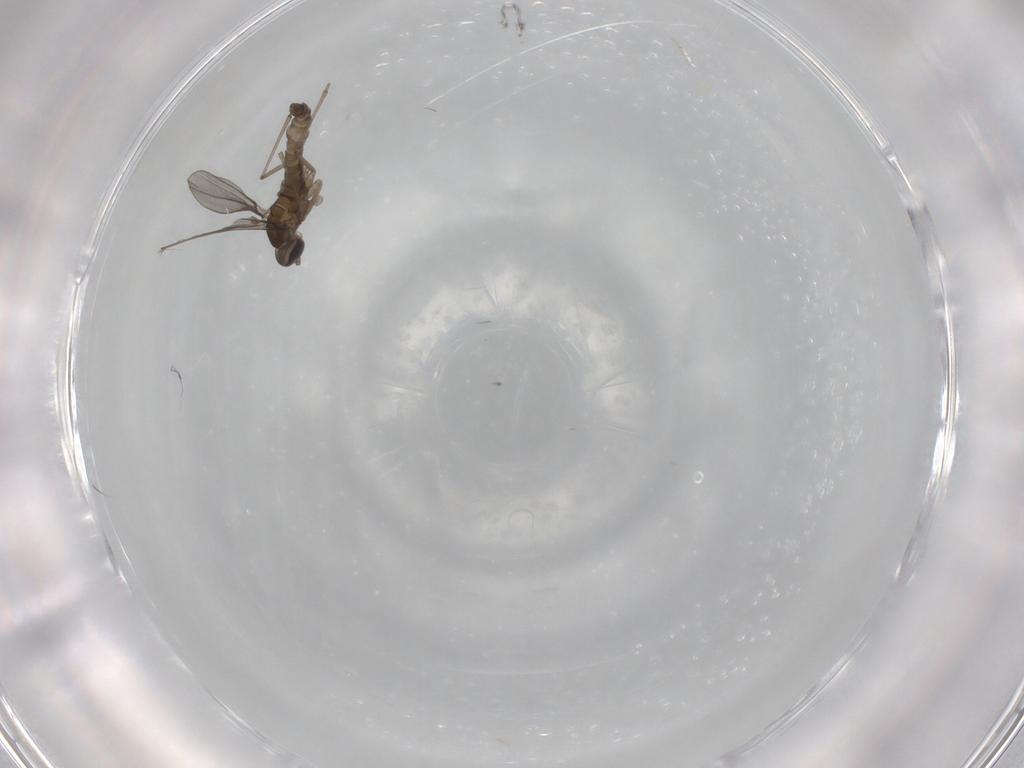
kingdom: Animalia
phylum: Arthropoda
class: Insecta
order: Diptera
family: Cecidomyiidae
